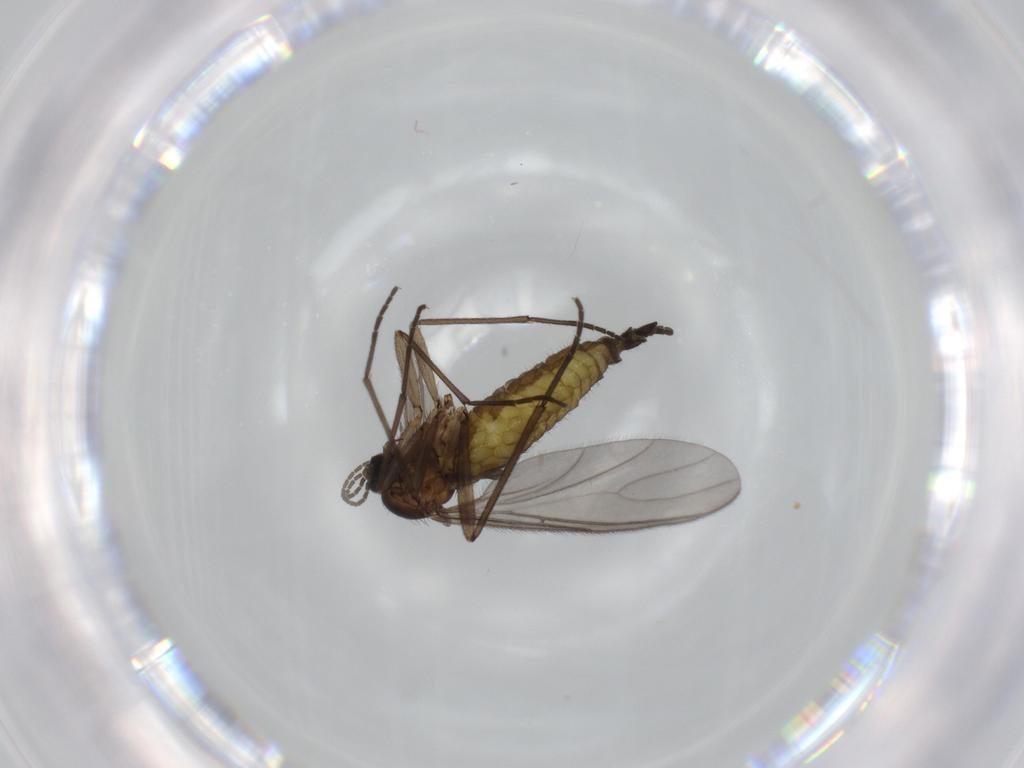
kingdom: Animalia
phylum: Arthropoda
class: Insecta
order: Diptera
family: Sciaridae
